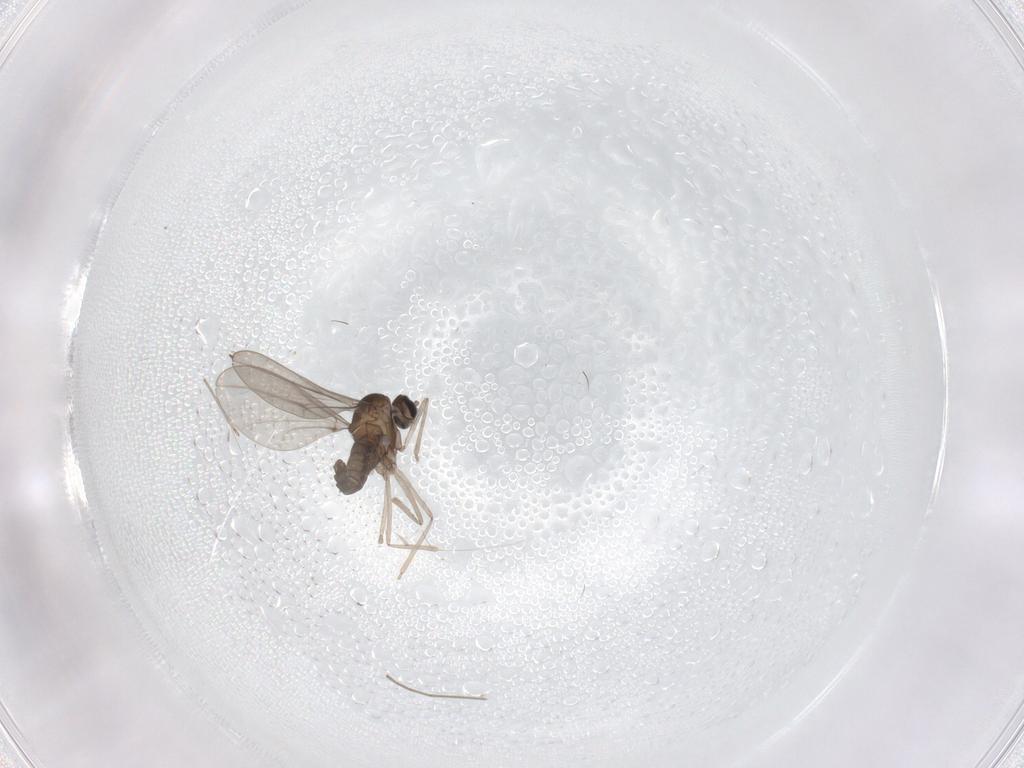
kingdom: Animalia
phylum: Arthropoda
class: Insecta
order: Diptera
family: Cecidomyiidae
